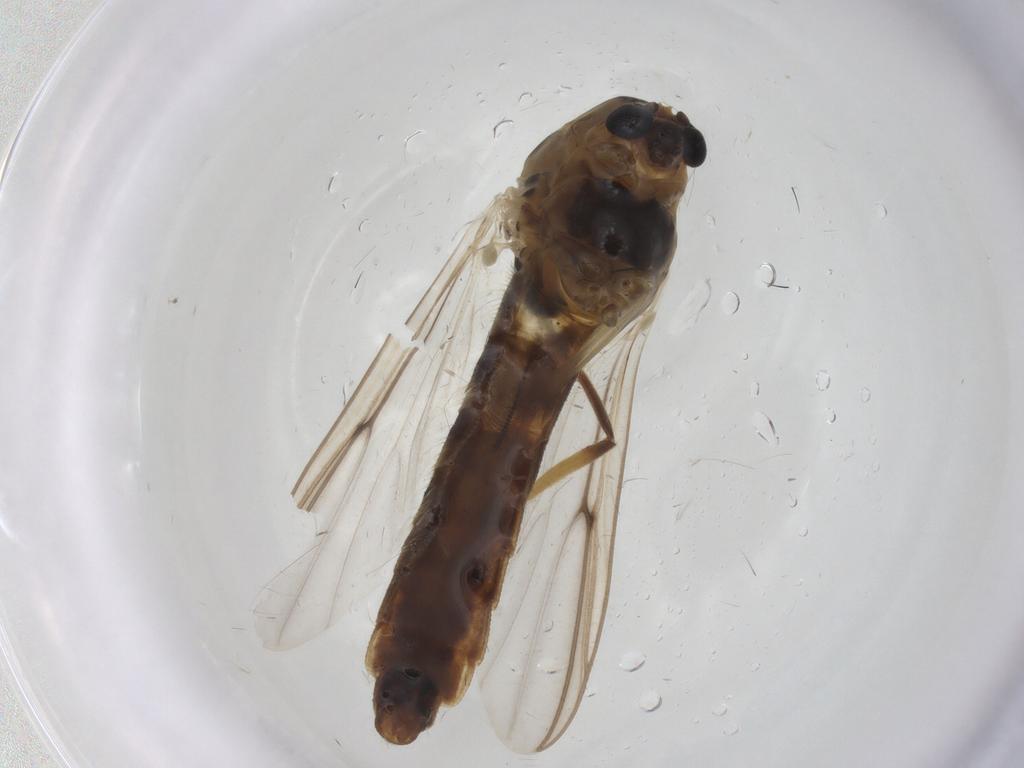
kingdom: Animalia
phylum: Arthropoda
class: Insecta
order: Diptera
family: Chironomidae
